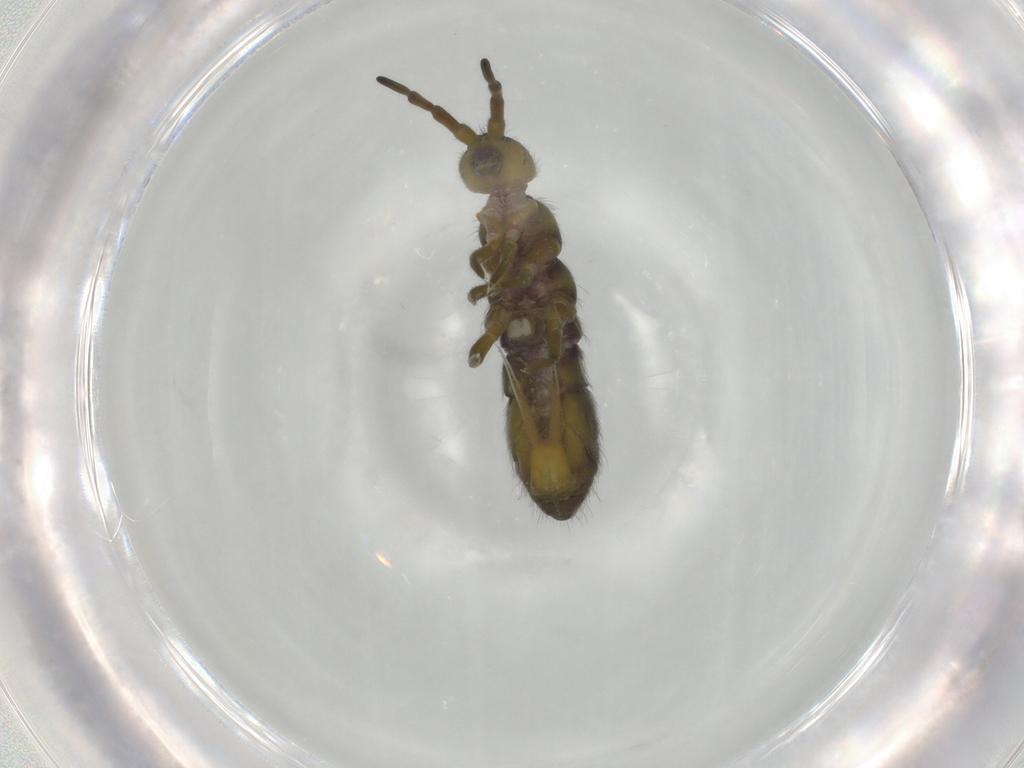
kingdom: Animalia
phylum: Arthropoda
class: Collembola
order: Entomobryomorpha
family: Isotomidae
